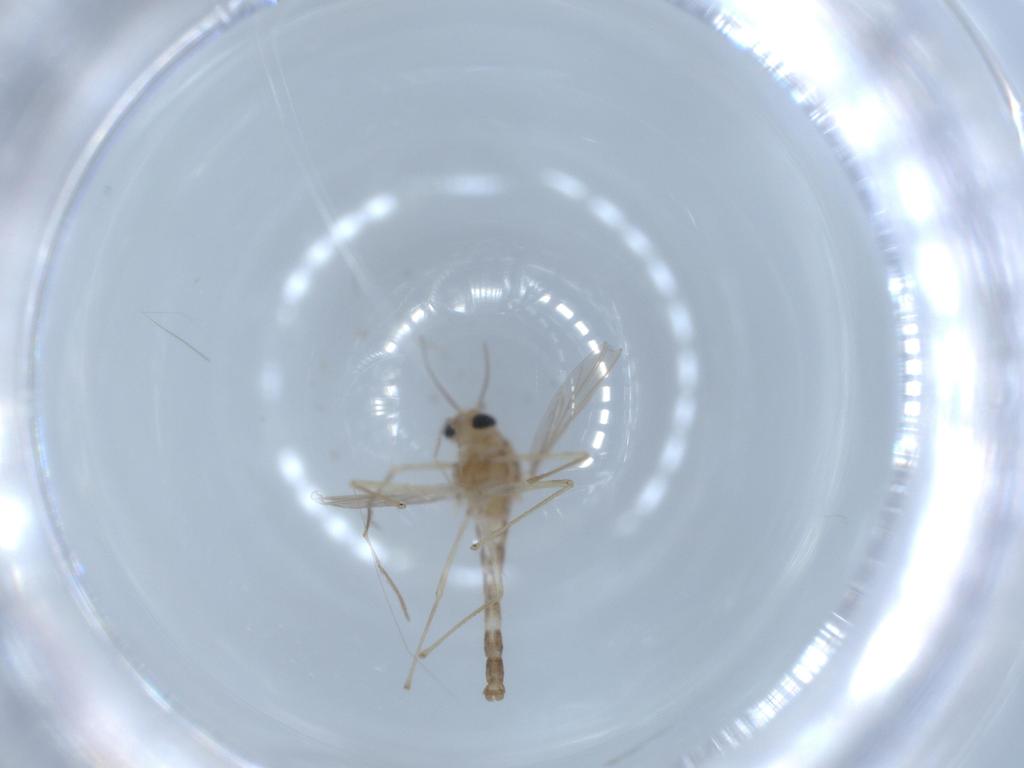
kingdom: Animalia
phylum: Arthropoda
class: Insecta
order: Diptera
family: Chironomidae
